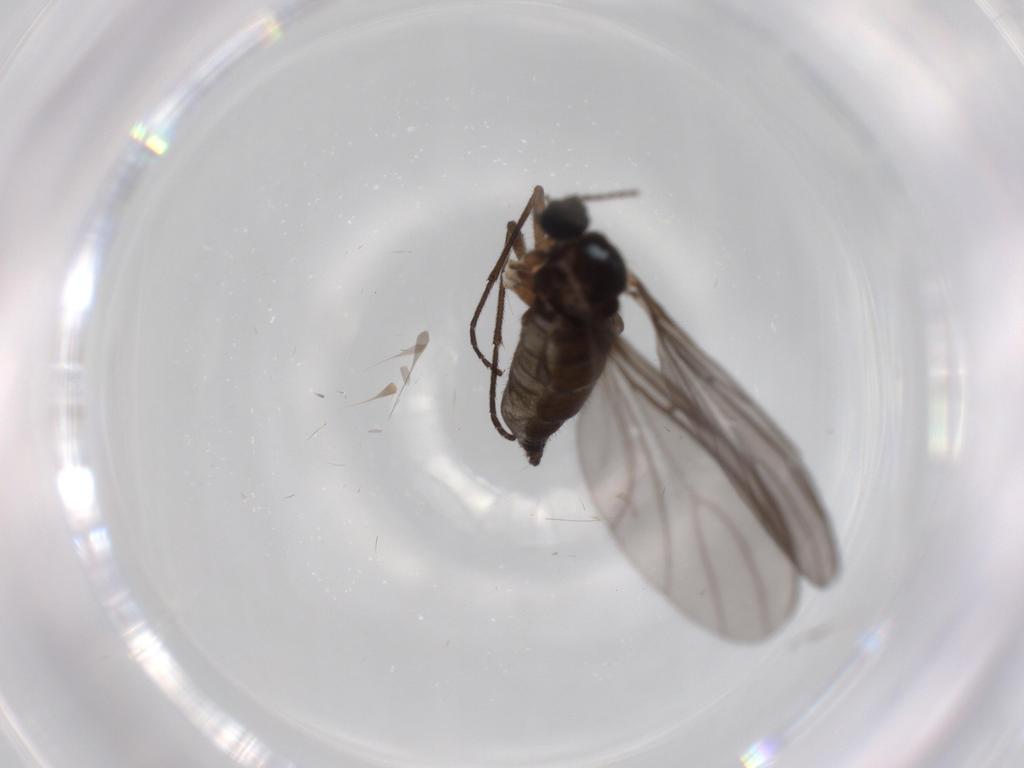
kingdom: Animalia
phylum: Arthropoda
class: Insecta
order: Diptera
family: Sciaridae
